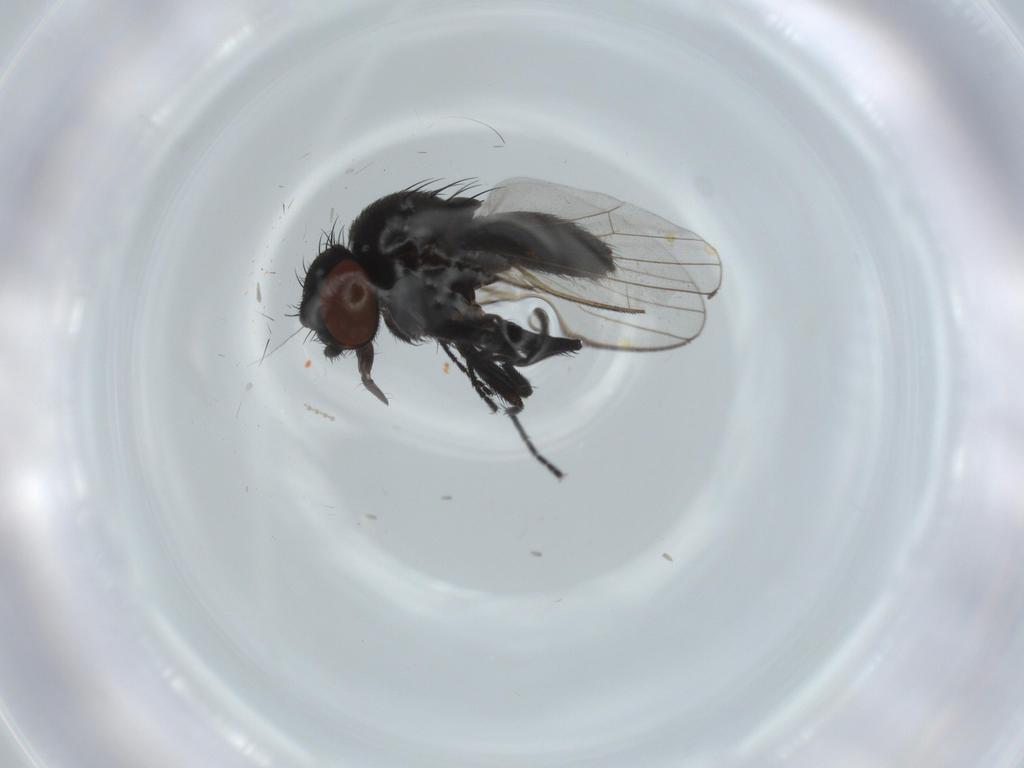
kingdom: Animalia
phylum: Arthropoda
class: Insecta
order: Diptera
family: Milichiidae
